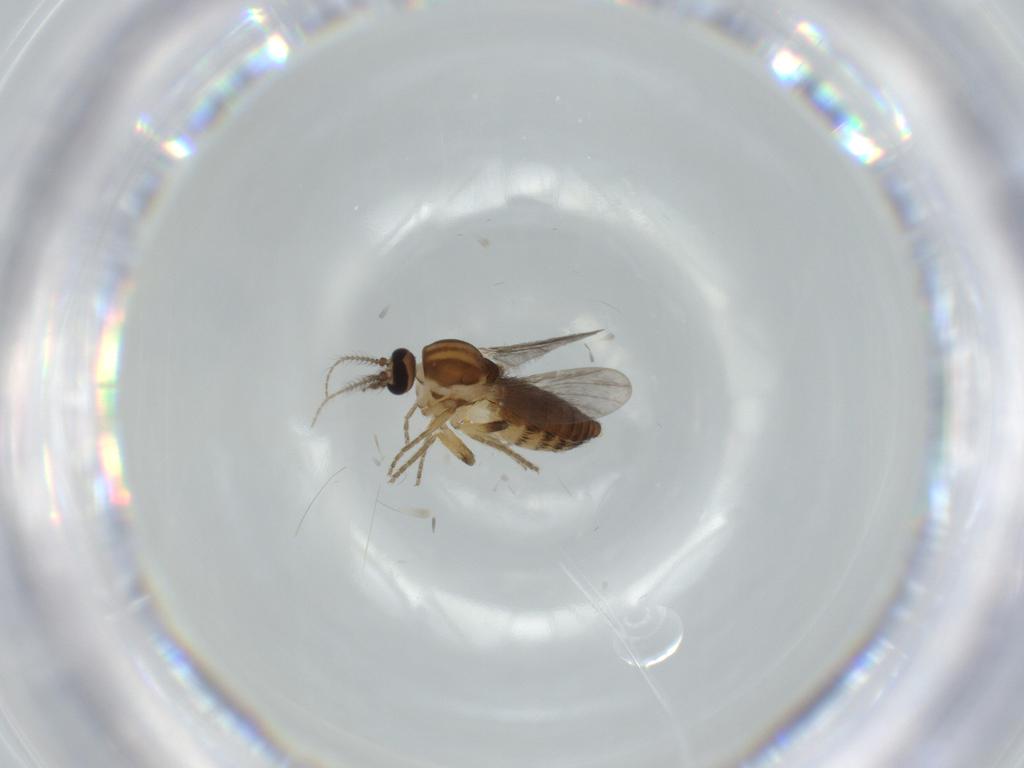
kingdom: Animalia
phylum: Arthropoda
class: Insecta
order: Diptera
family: Ceratopogonidae
